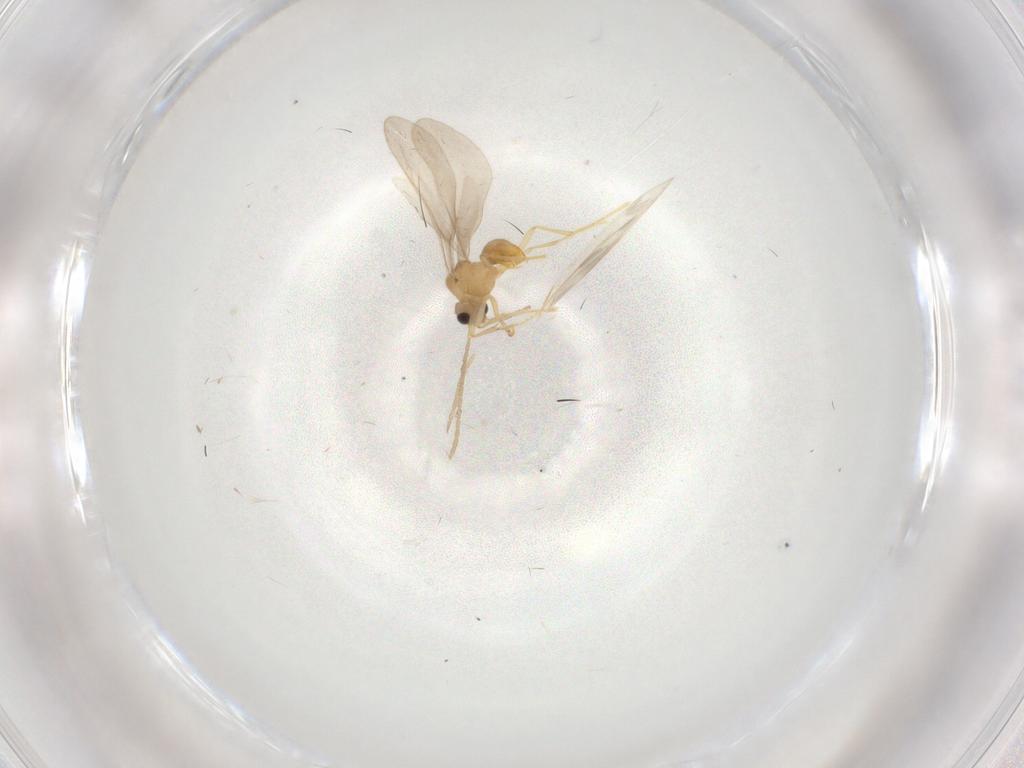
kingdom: Animalia
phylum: Arthropoda
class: Insecta
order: Hymenoptera
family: Formicidae
